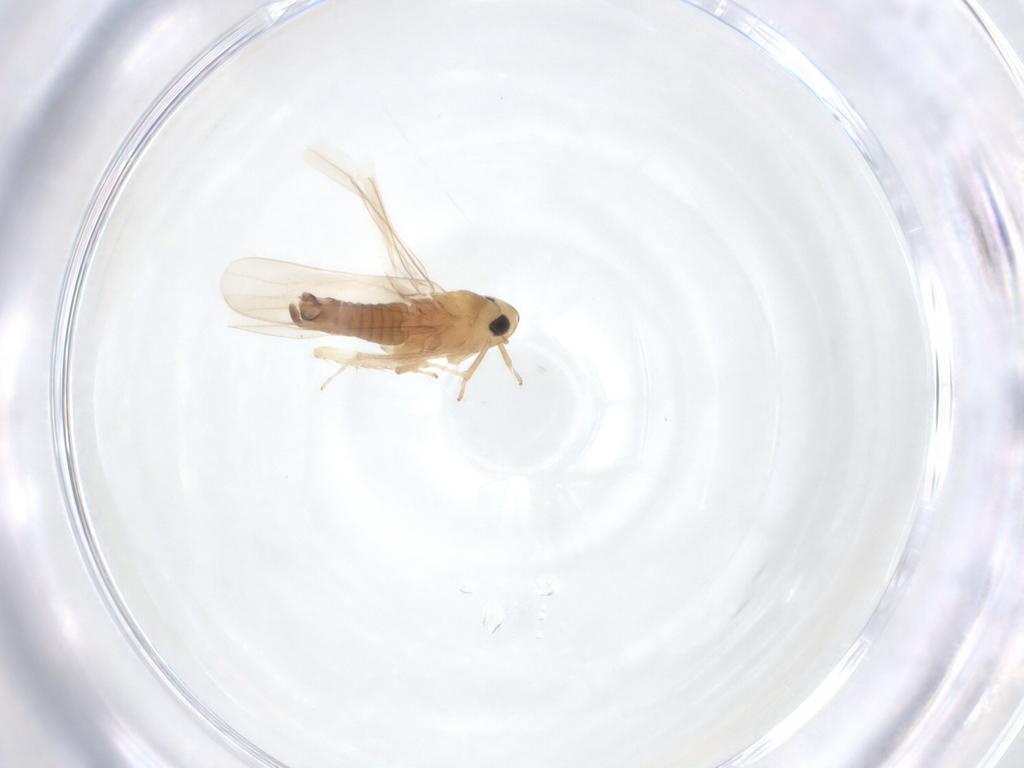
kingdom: Animalia
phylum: Arthropoda
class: Insecta
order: Hemiptera
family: Cicadellidae
